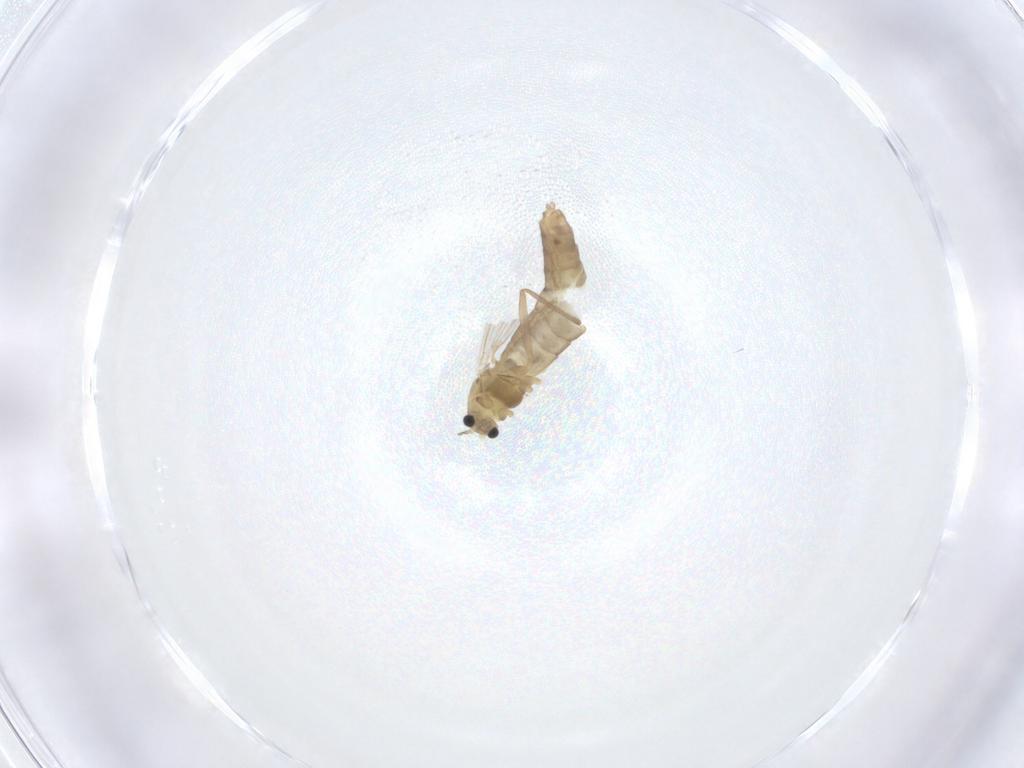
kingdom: Animalia
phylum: Arthropoda
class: Insecta
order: Diptera
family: Chironomidae
